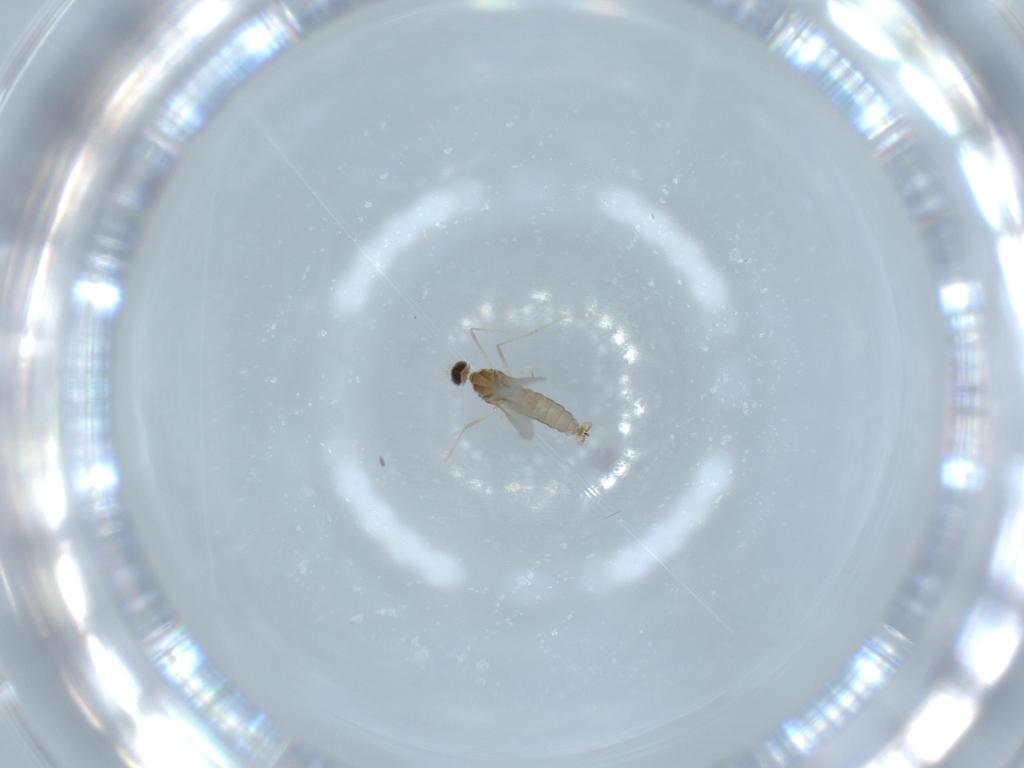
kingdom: Animalia
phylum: Arthropoda
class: Insecta
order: Diptera
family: Cecidomyiidae
